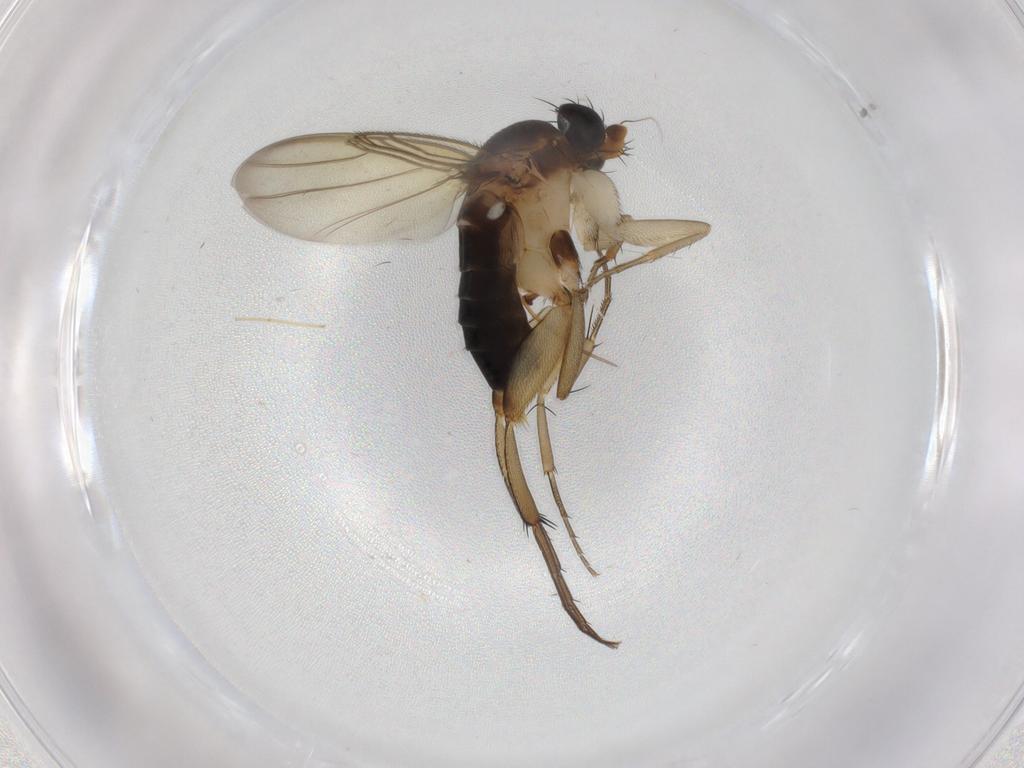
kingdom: Animalia
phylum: Arthropoda
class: Insecta
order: Diptera
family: Phoridae
